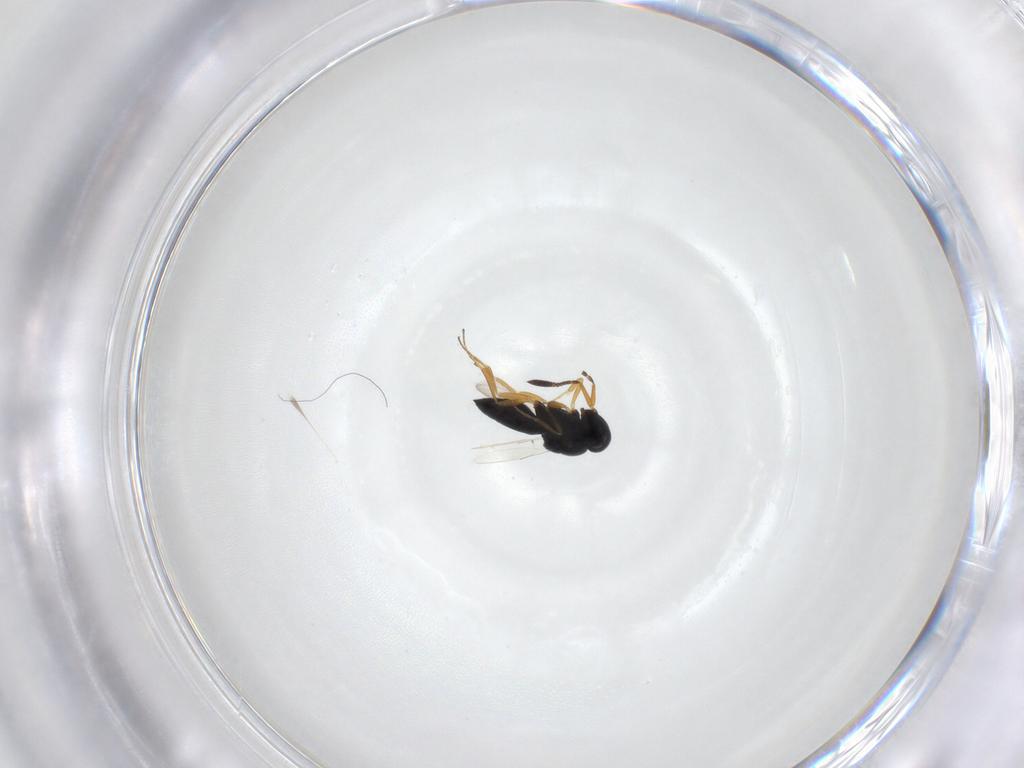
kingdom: Animalia
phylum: Arthropoda
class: Insecta
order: Hymenoptera
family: Scelionidae
